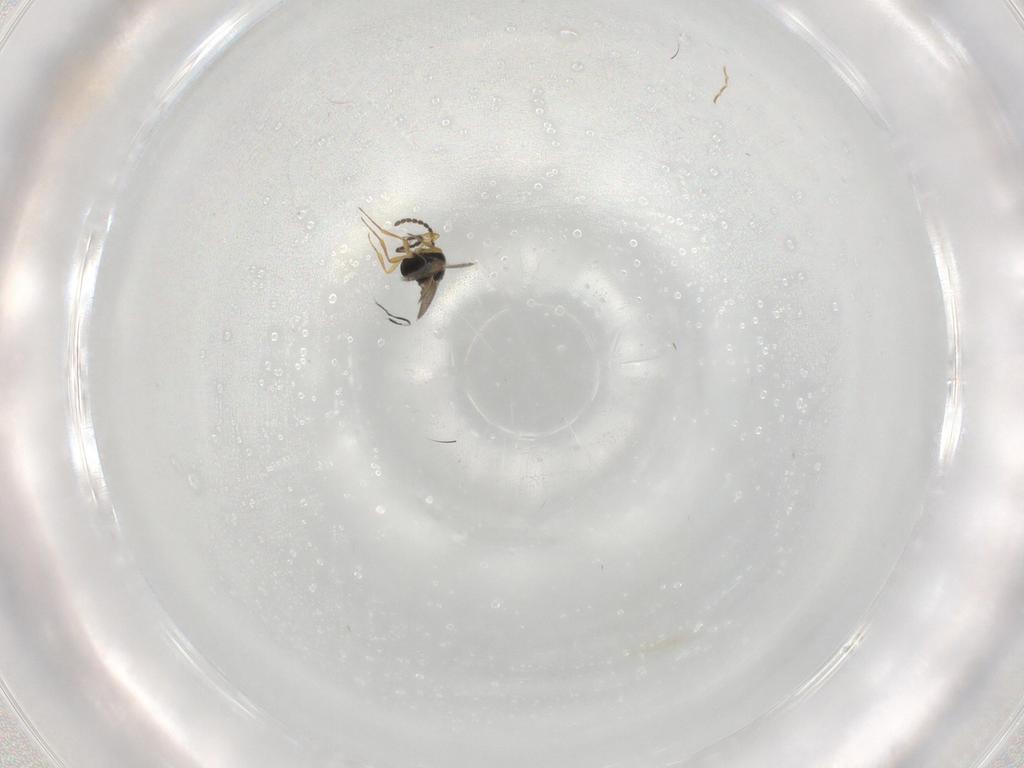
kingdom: Animalia
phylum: Arthropoda
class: Insecta
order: Hymenoptera
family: Scelionidae
